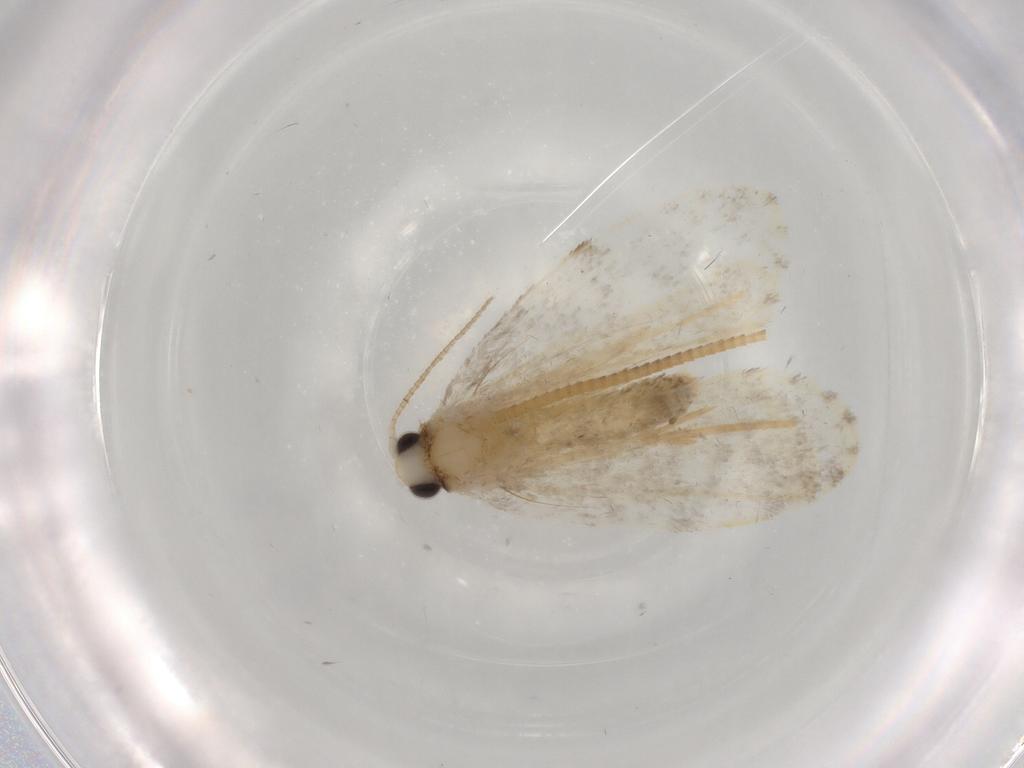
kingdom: Animalia
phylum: Arthropoda
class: Insecta
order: Lepidoptera
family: Psychidae
